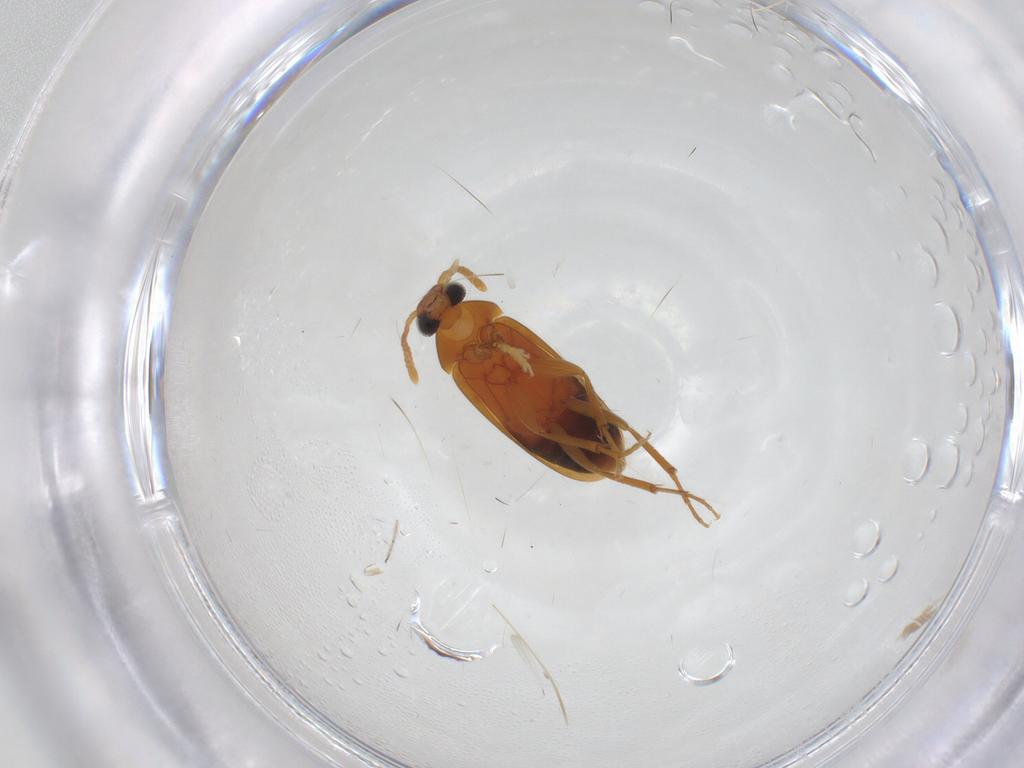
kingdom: Animalia
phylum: Arthropoda
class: Insecta
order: Coleoptera
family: Scraptiidae
